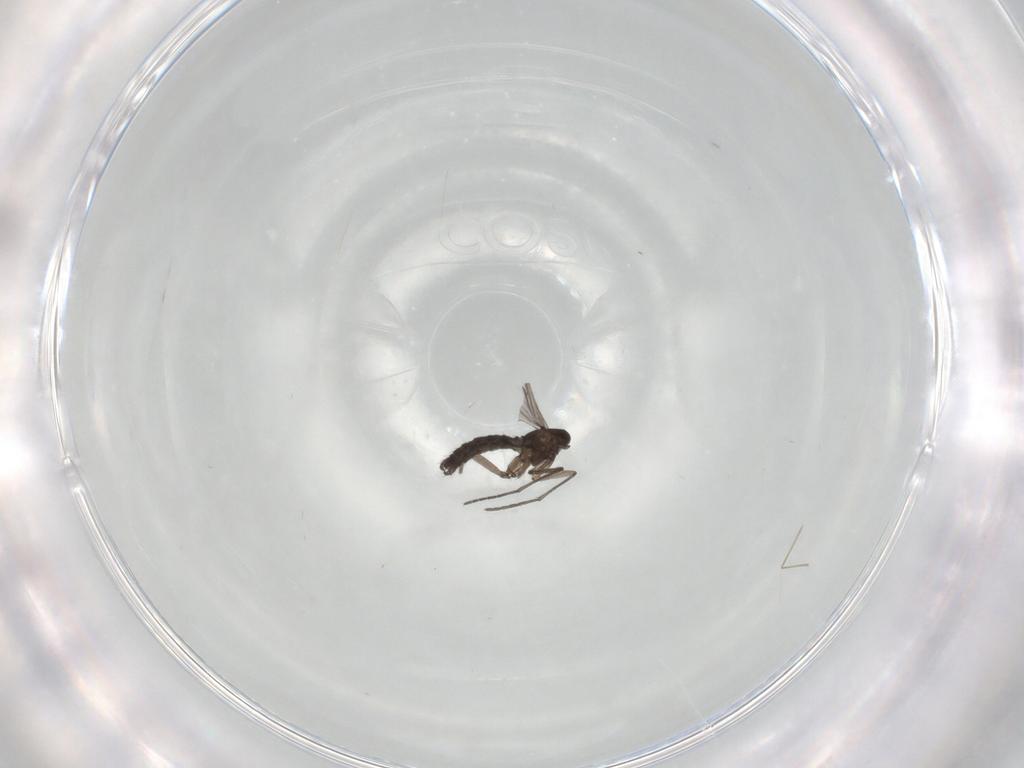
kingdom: Animalia
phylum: Arthropoda
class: Insecta
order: Diptera
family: Sciaridae
